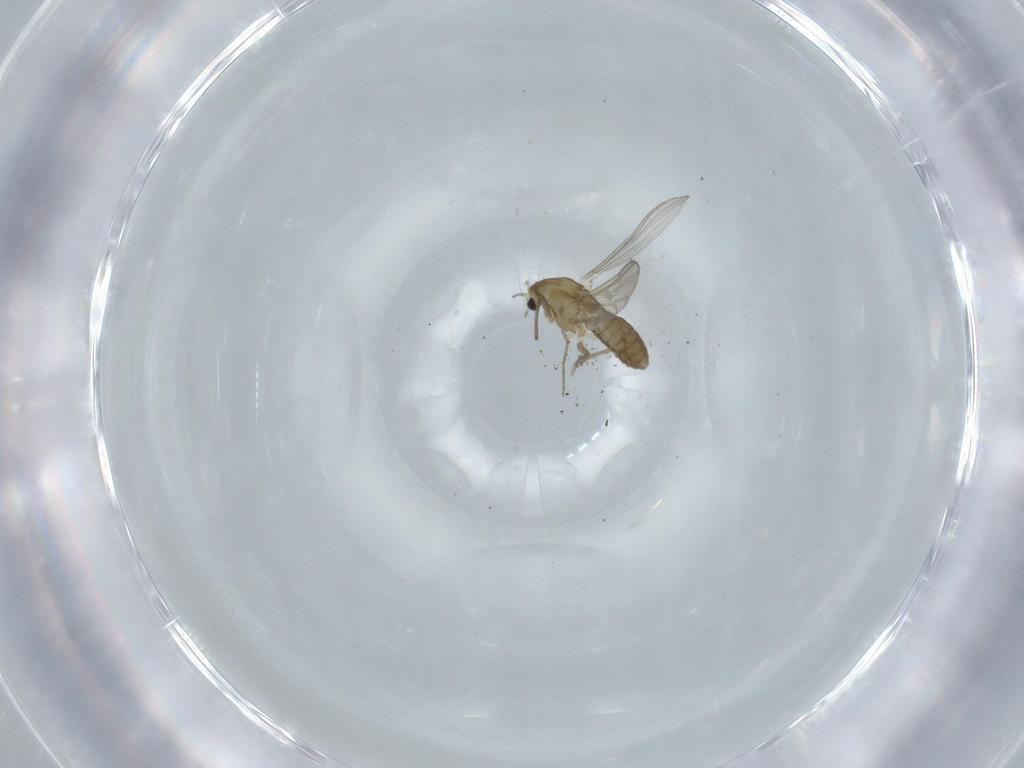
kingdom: Animalia
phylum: Arthropoda
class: Insecta
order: Diptera
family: Chironomidae
